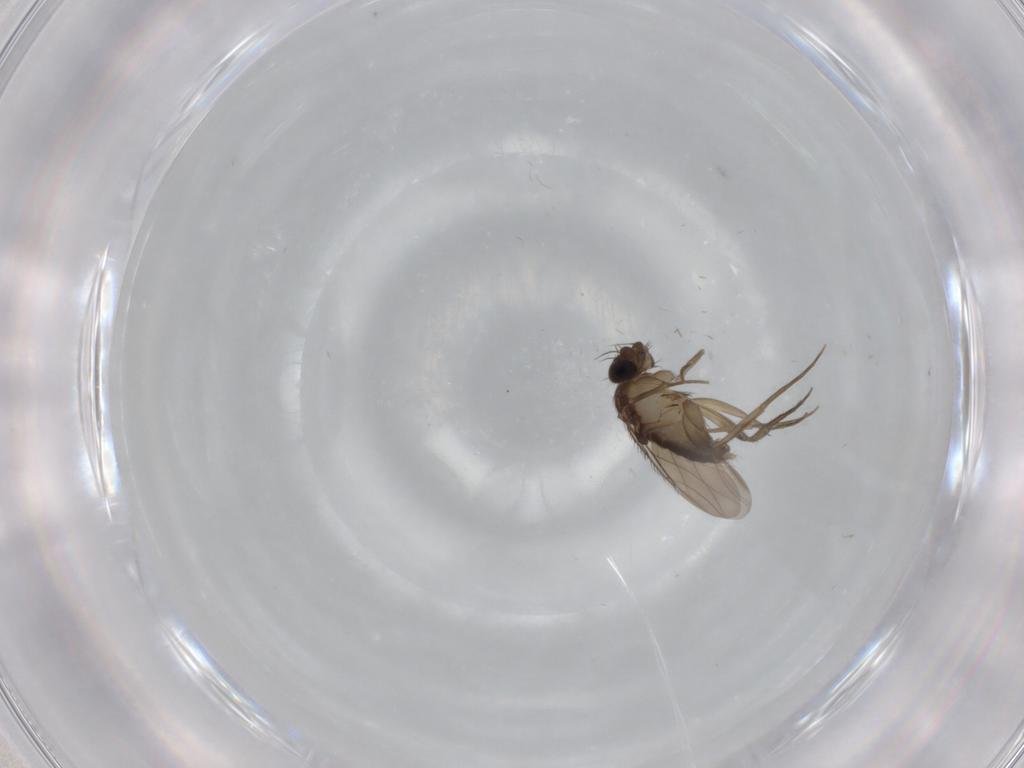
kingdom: Animalia
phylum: Arthropoda
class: Insecta
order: Diptera
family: Phoridae
